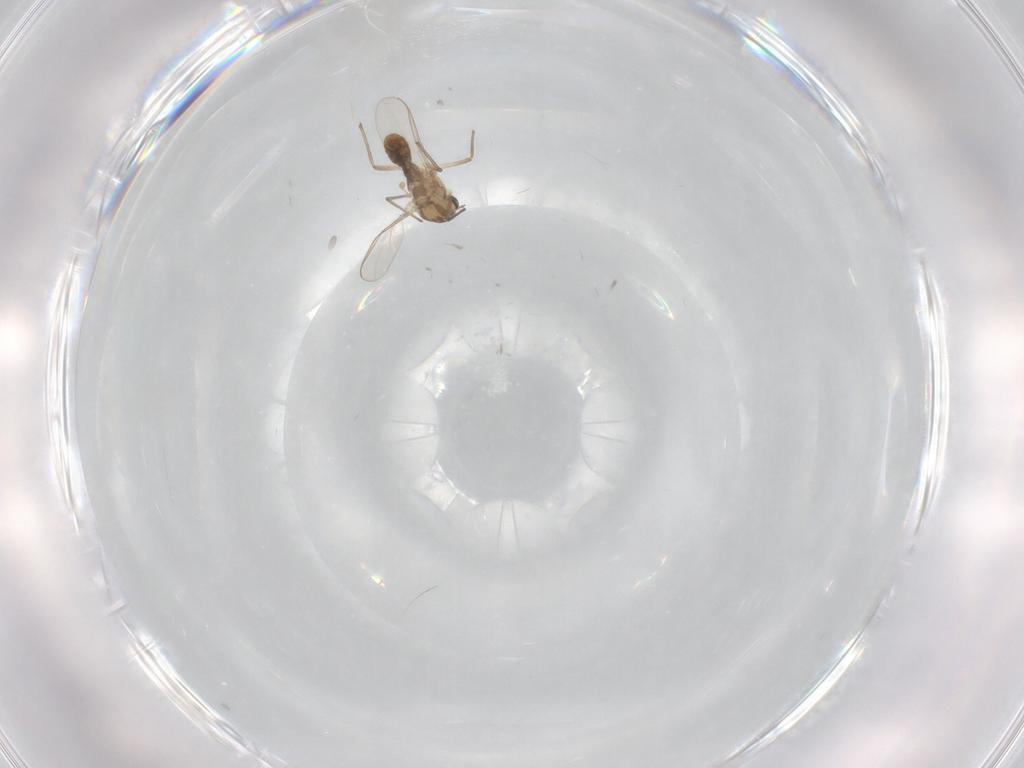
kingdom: Animalia
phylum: Arthropoda
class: Insecta
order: Diptera
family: Chironomidae
